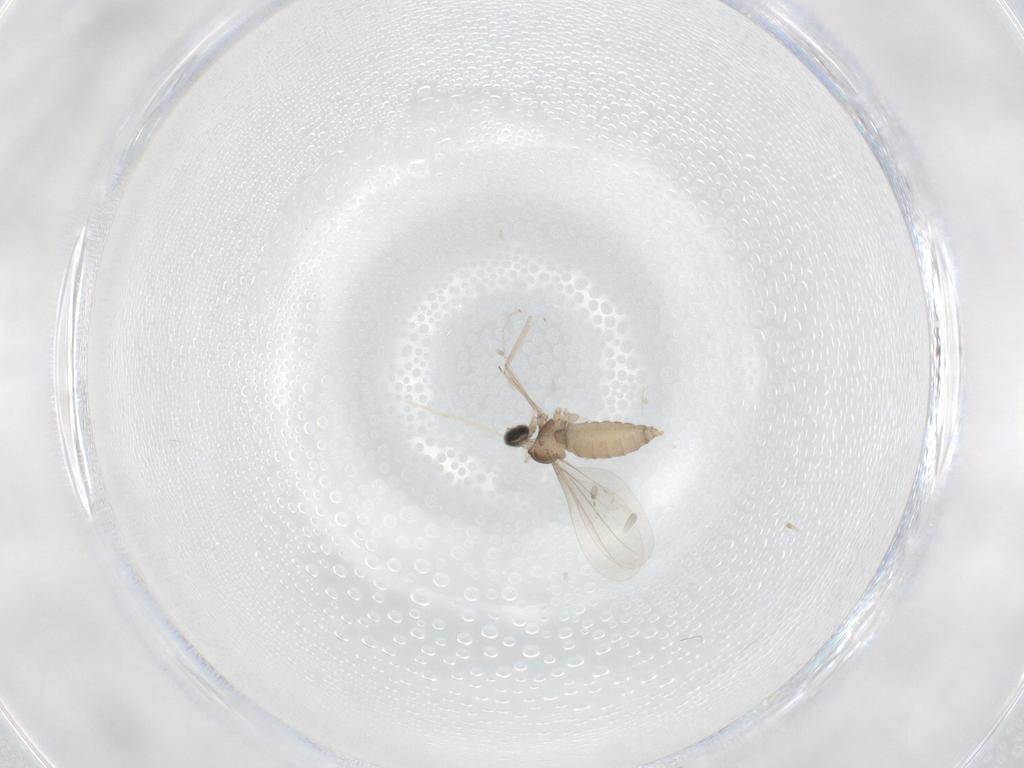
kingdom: Animalia
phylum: Arthropoda
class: Insecta
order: Diptera
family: Cecidomyiidae
